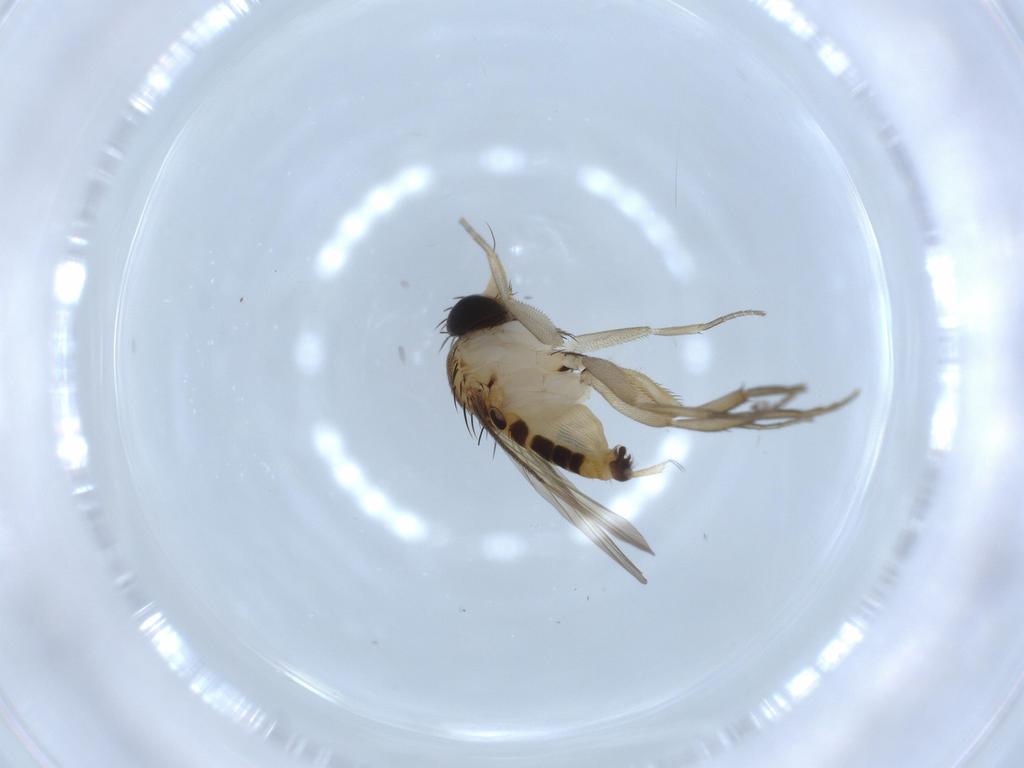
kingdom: Animalia
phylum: Arthropoda
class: Insecta
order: Diptera
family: Phoridae
